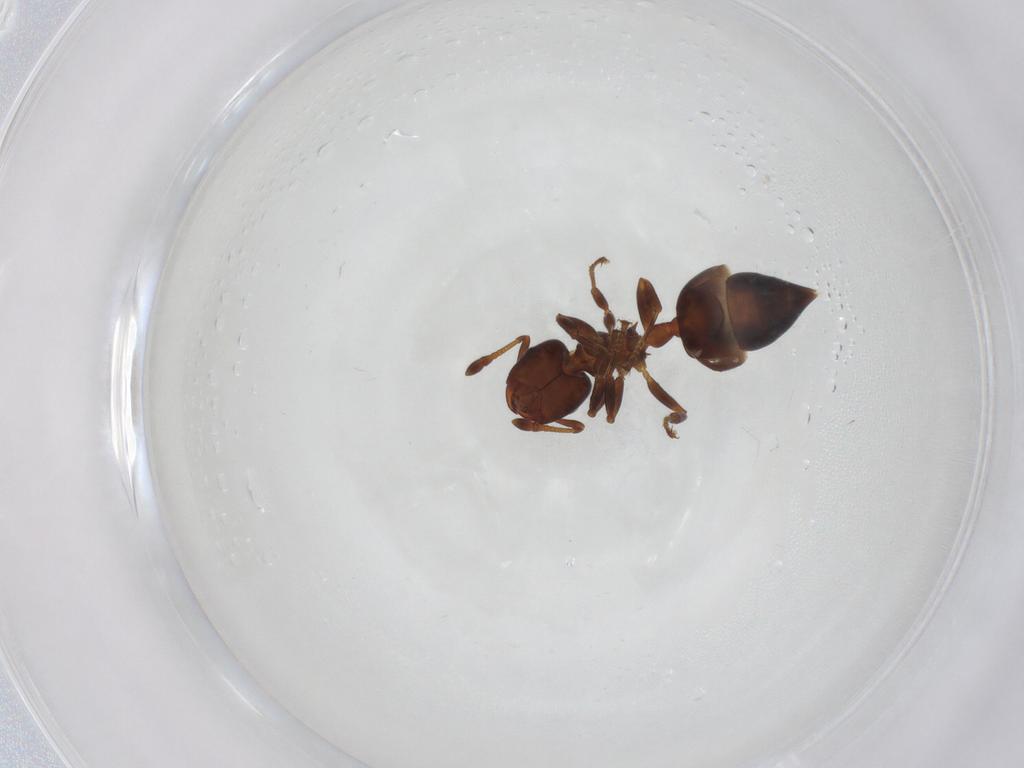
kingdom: Animalia
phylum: Arthropoda
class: Insecta
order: Hymenoptera
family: Formicidae
